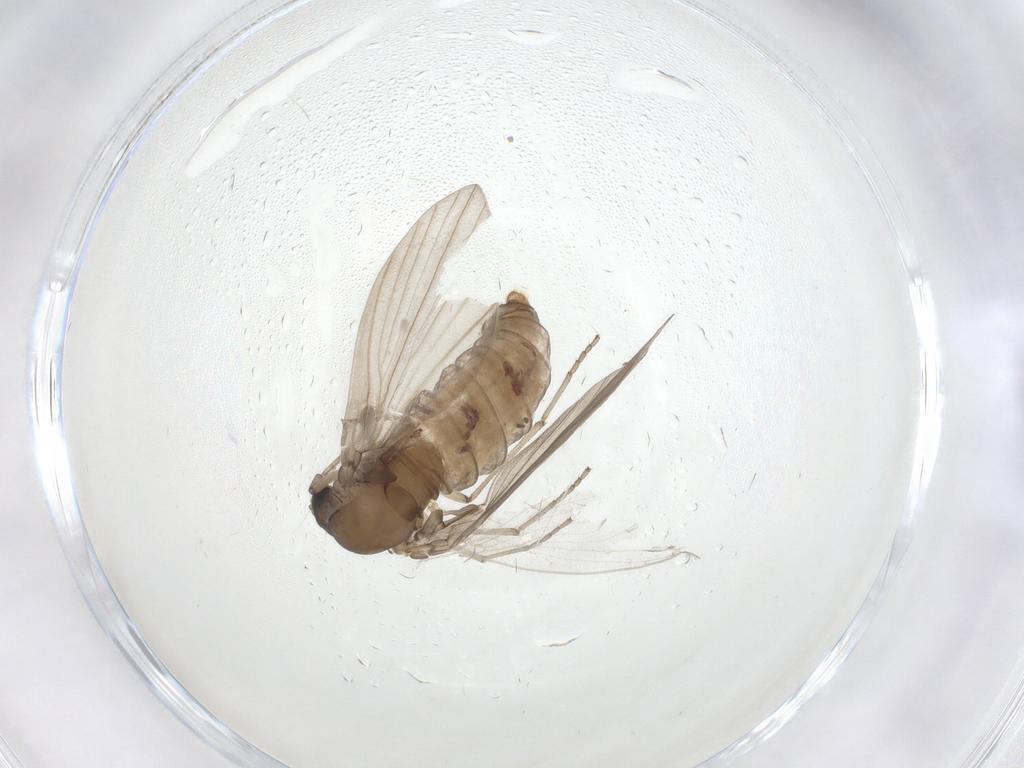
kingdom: Animalia
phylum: Arthropoda
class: Insecta
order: Diptera
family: Psychodidae
